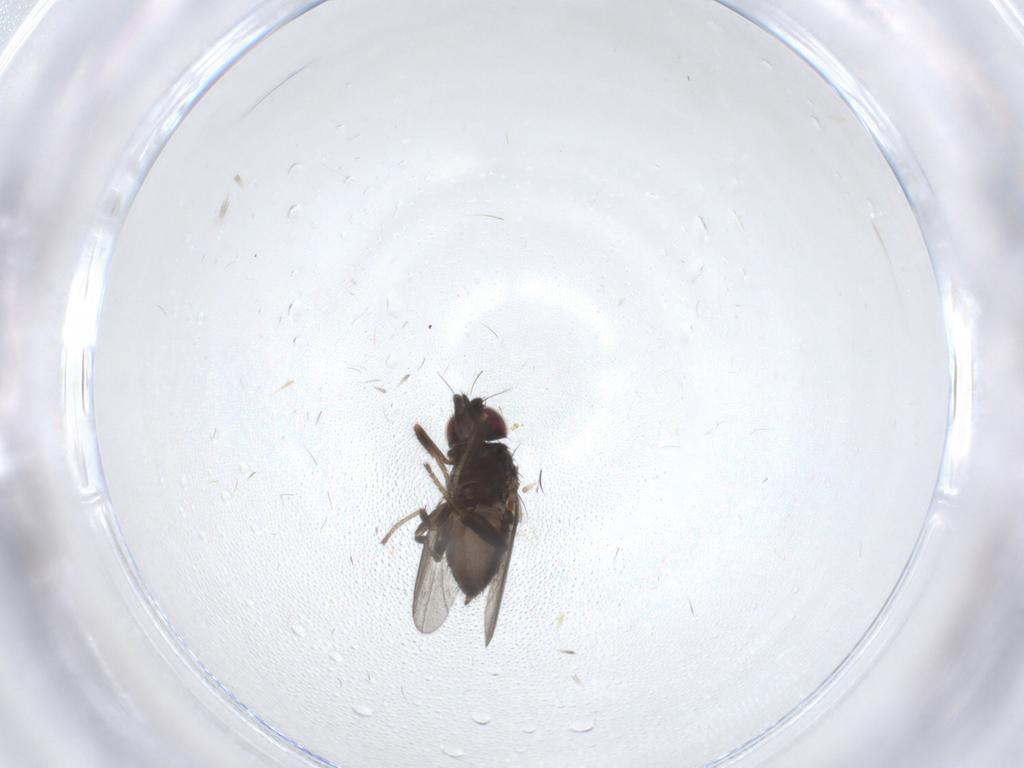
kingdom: Animalia
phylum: Arthropoda
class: Insecta
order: Diptera
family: Milichiidae
